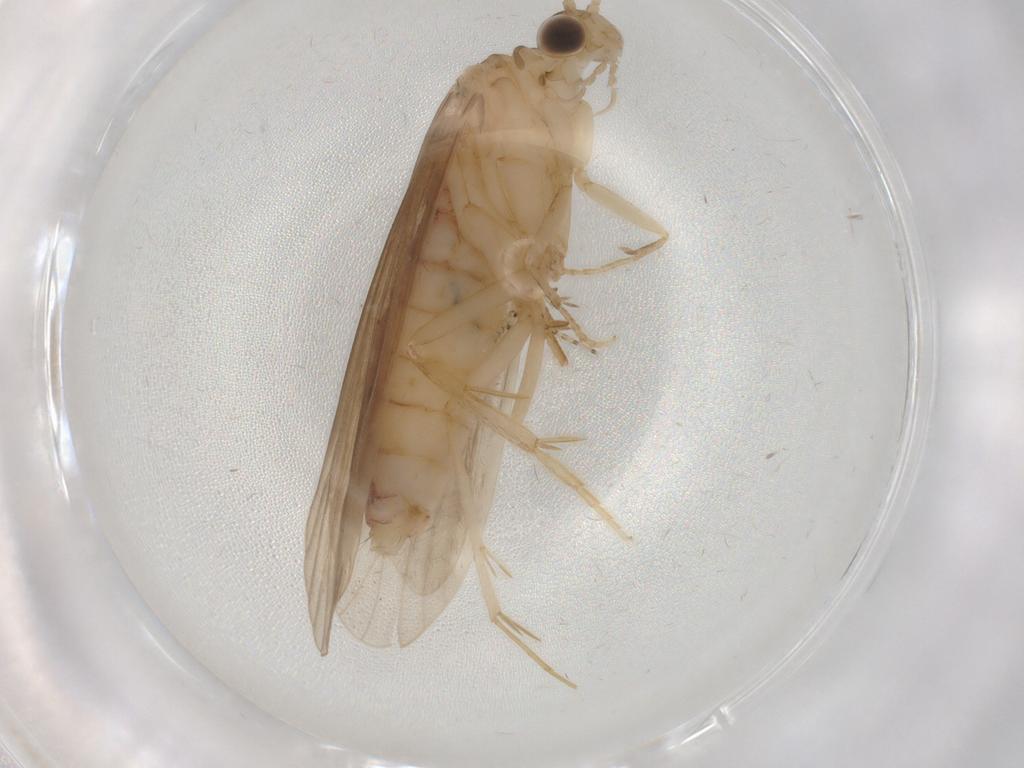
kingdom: Animalia
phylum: Arthropoda
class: Insecta
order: Trichoptera
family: Ecnomidae
